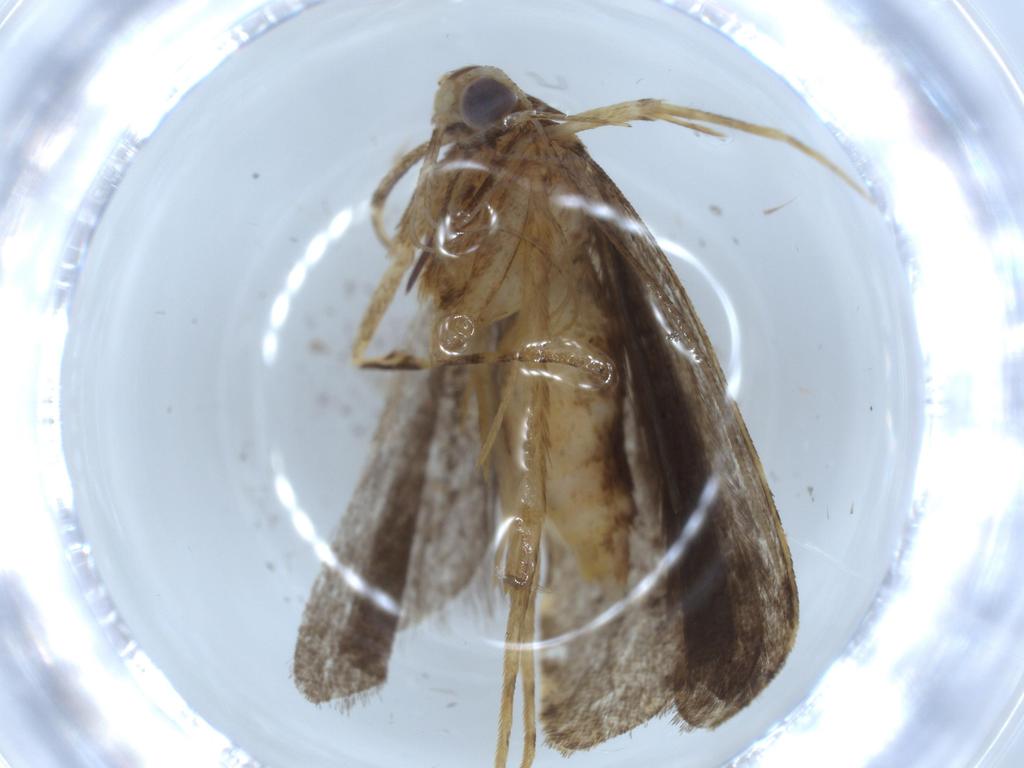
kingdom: Animalia
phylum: Arthropoda
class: Insecta
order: Lepidoptera
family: Autostichidae
